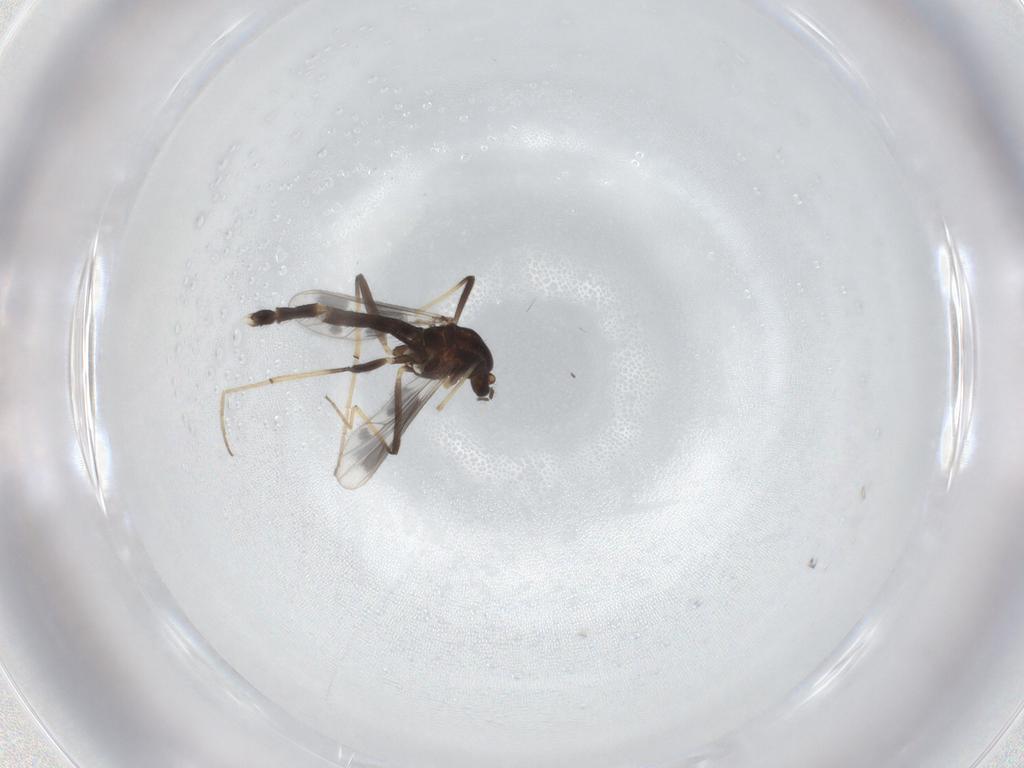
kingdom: Animalia
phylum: Arthropoda
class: Insecta
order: Diptera
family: Chironomidae
